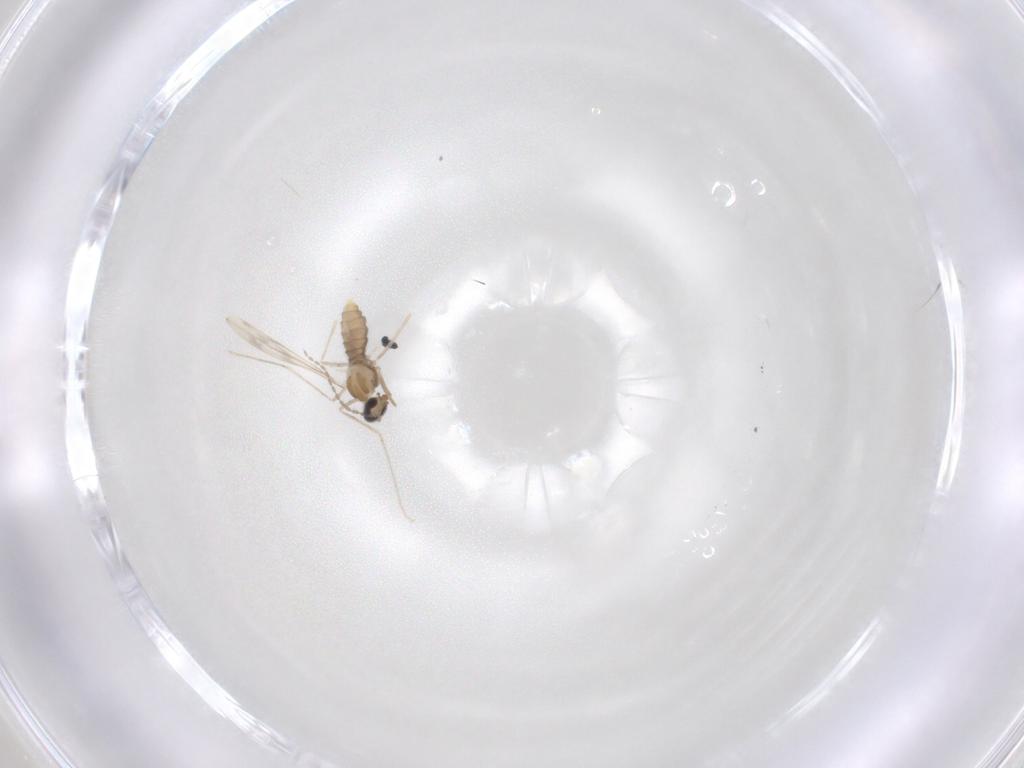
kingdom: Animalia
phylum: Arthropoda
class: Insecta
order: Diptera
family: Cecidomyiidae
